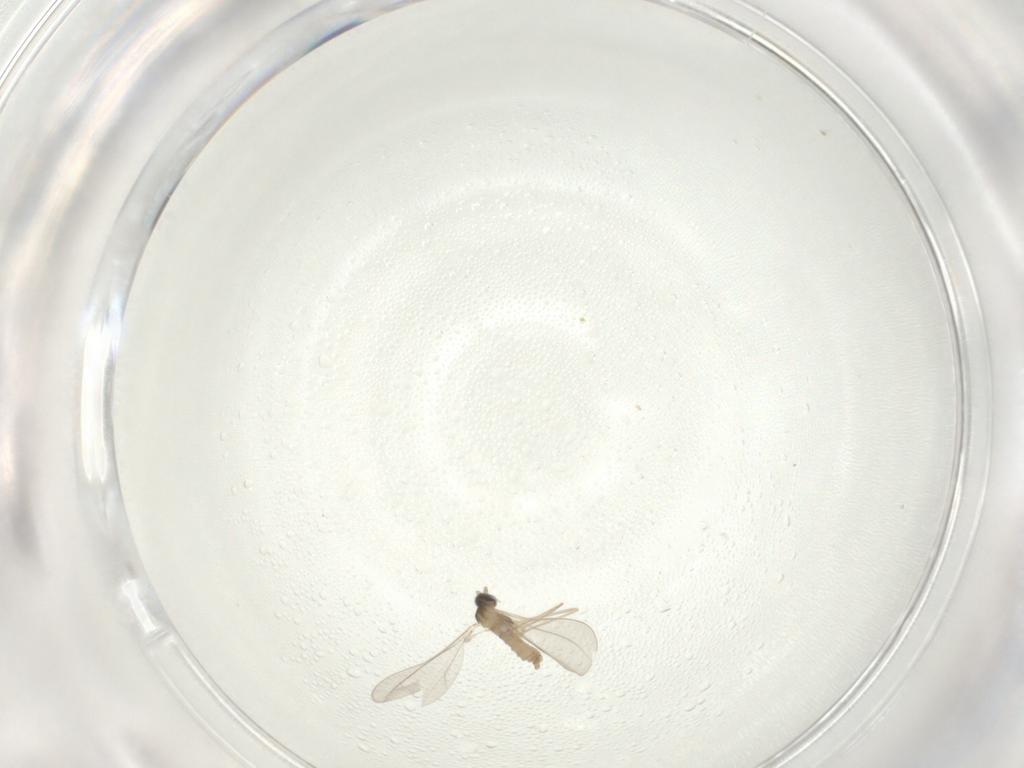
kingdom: Animalia
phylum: Arthropoda
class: Insecta
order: Diptera
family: Cecidomyiidae
